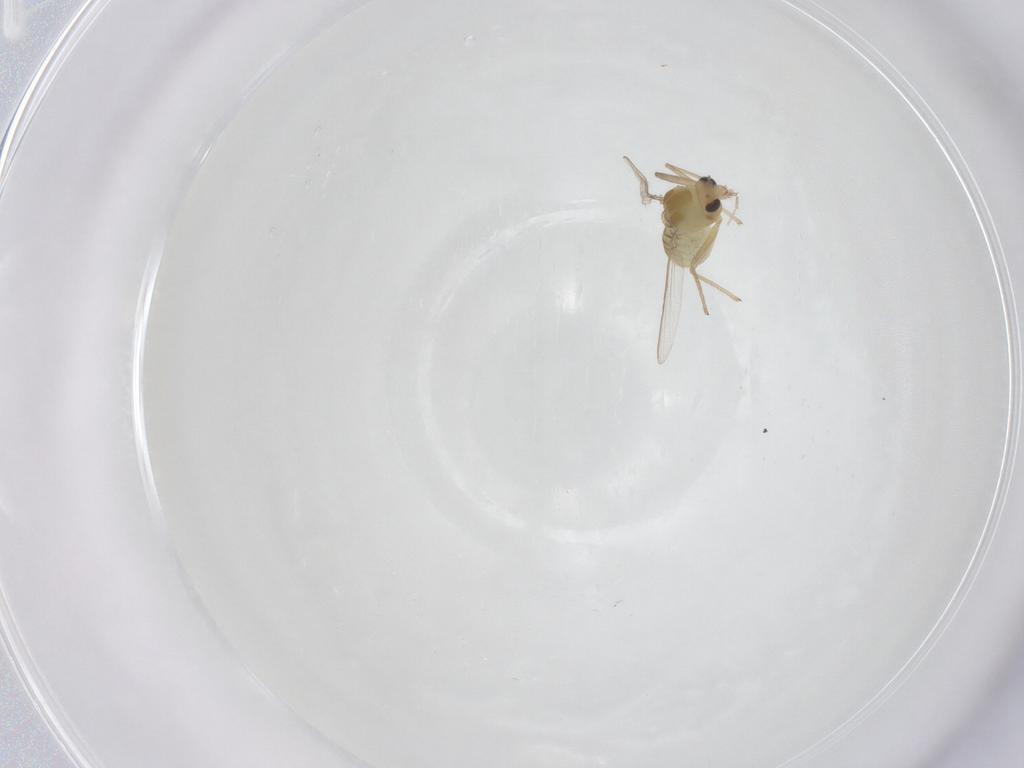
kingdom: Animalia
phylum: Arthropoda
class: Insecta
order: Diptera
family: Chironomidae
